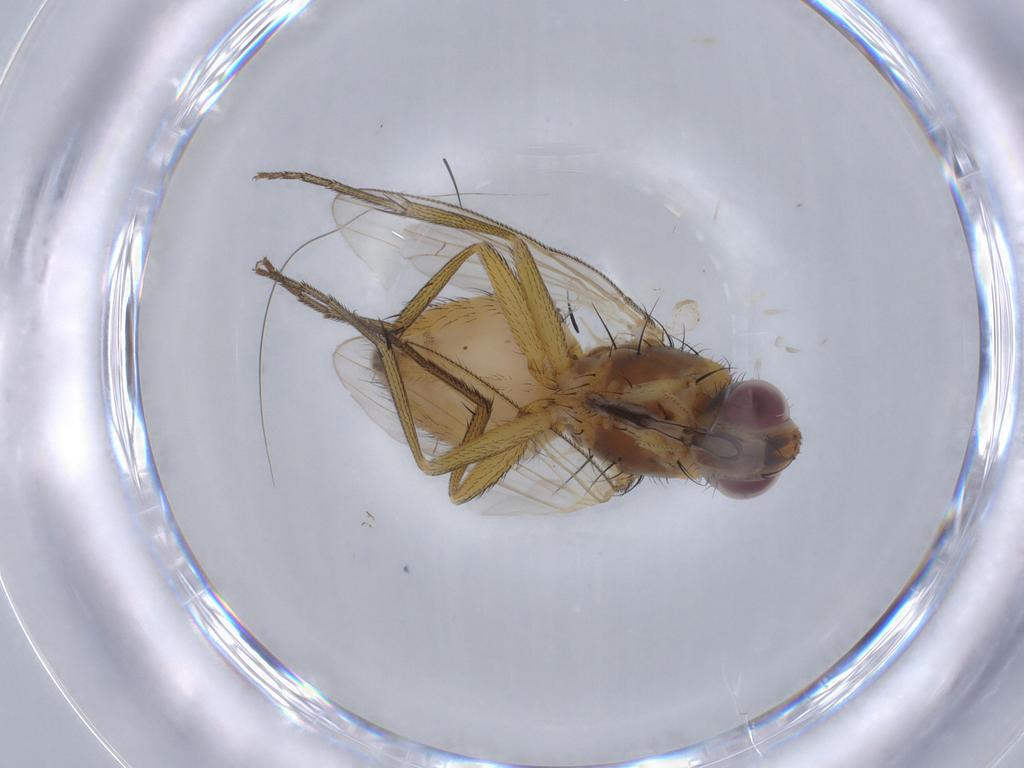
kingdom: Animalia
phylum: Arthropoda
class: Insecta
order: Diptera
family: Muscidae
